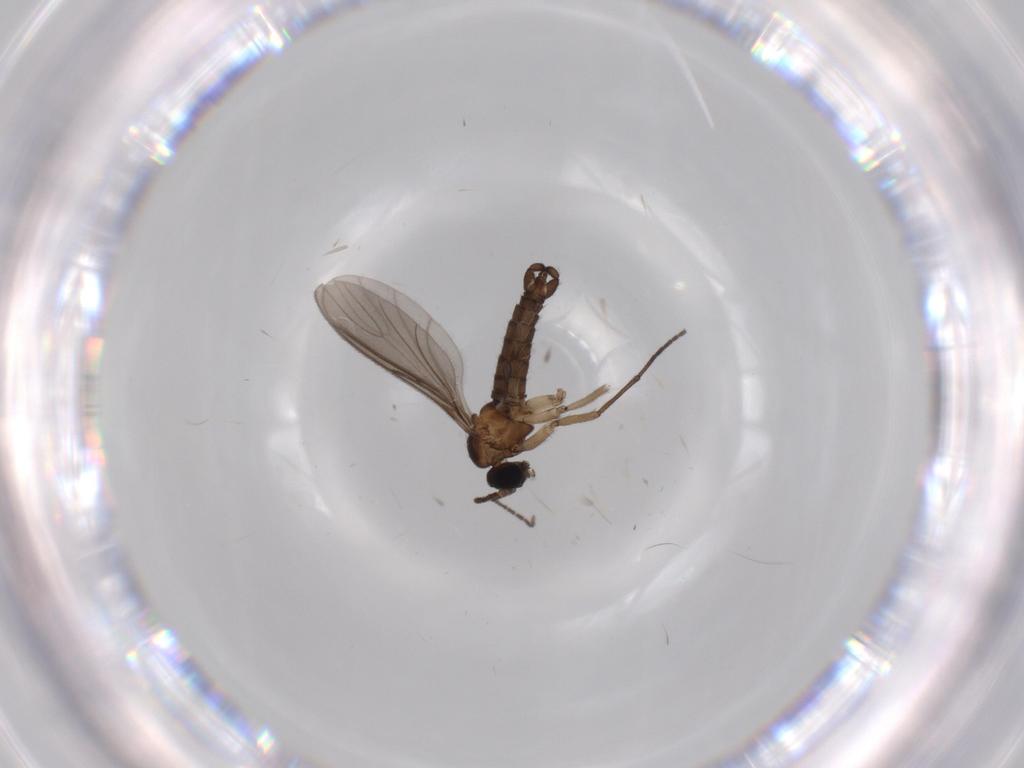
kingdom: Animalia
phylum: Arthropoda
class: Insecta
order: Diptera
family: Sciaridae
